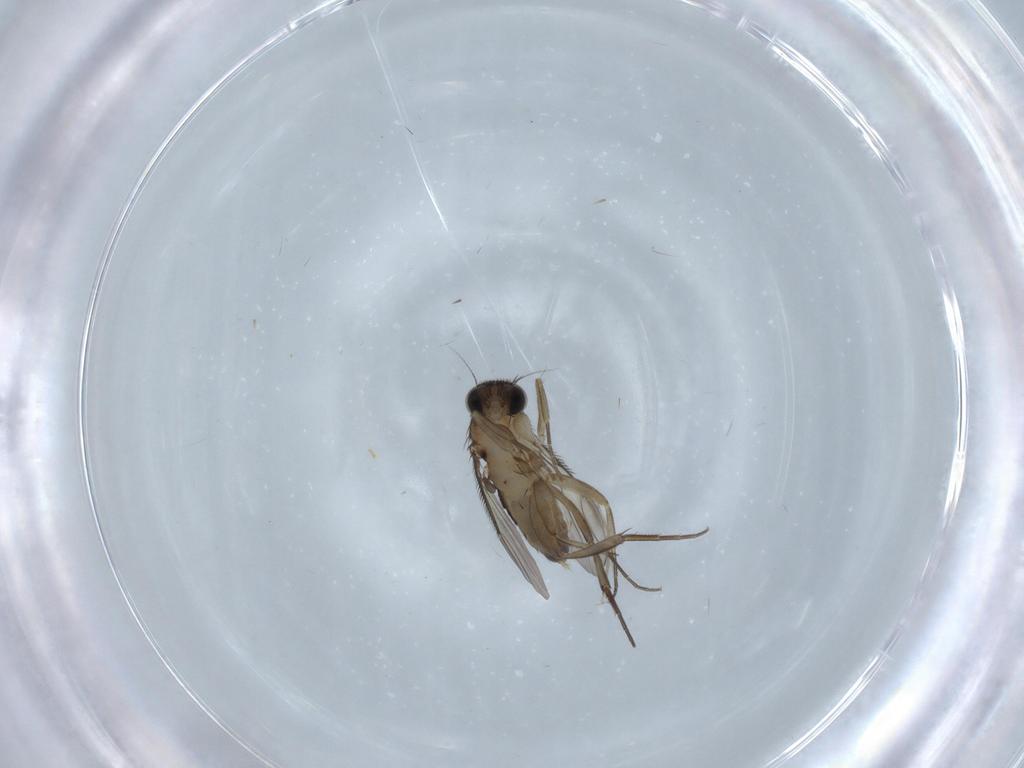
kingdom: Animalia
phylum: Arthropoda
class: Insecta
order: Diptera
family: Phoridae
